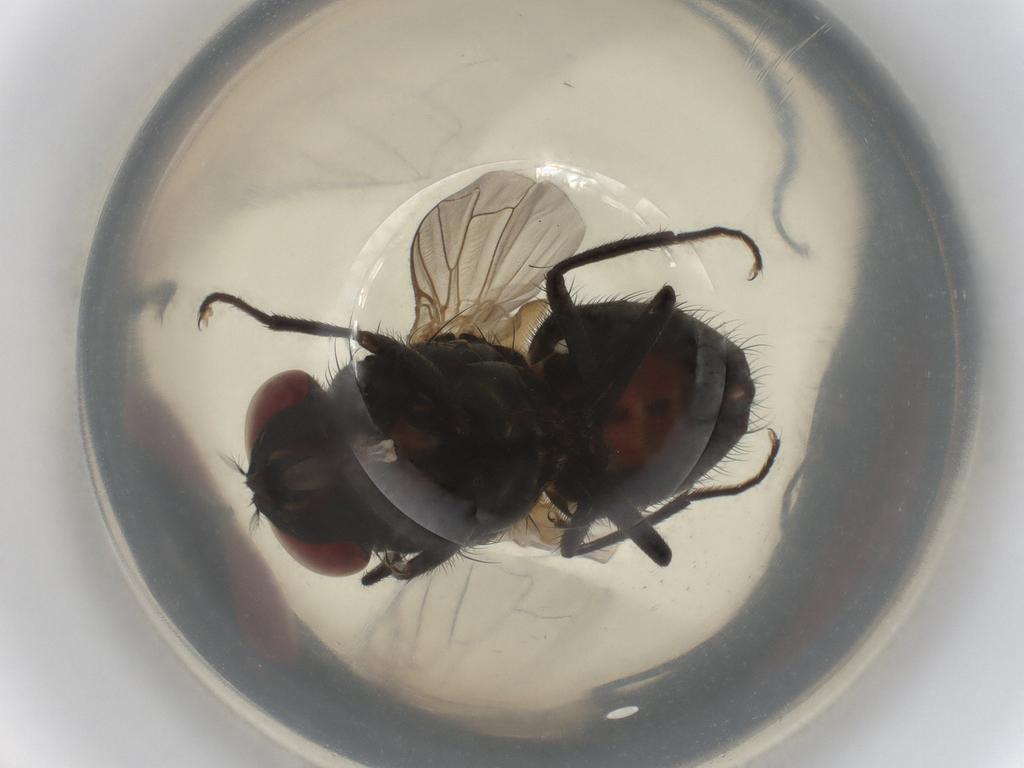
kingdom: Animalia
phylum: Arthropoda
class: Insecta
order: Diptera
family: Muscidae
